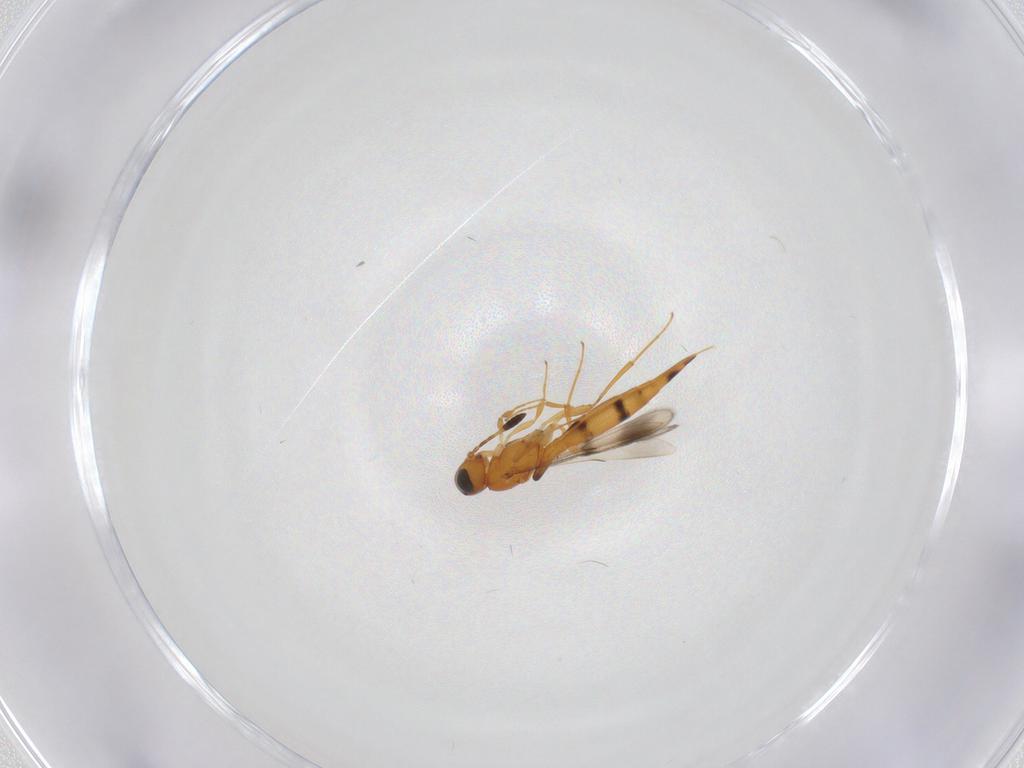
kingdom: Animalia
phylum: Arthropoda
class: Insecta
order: Hymenoptera
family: Scelionidae
